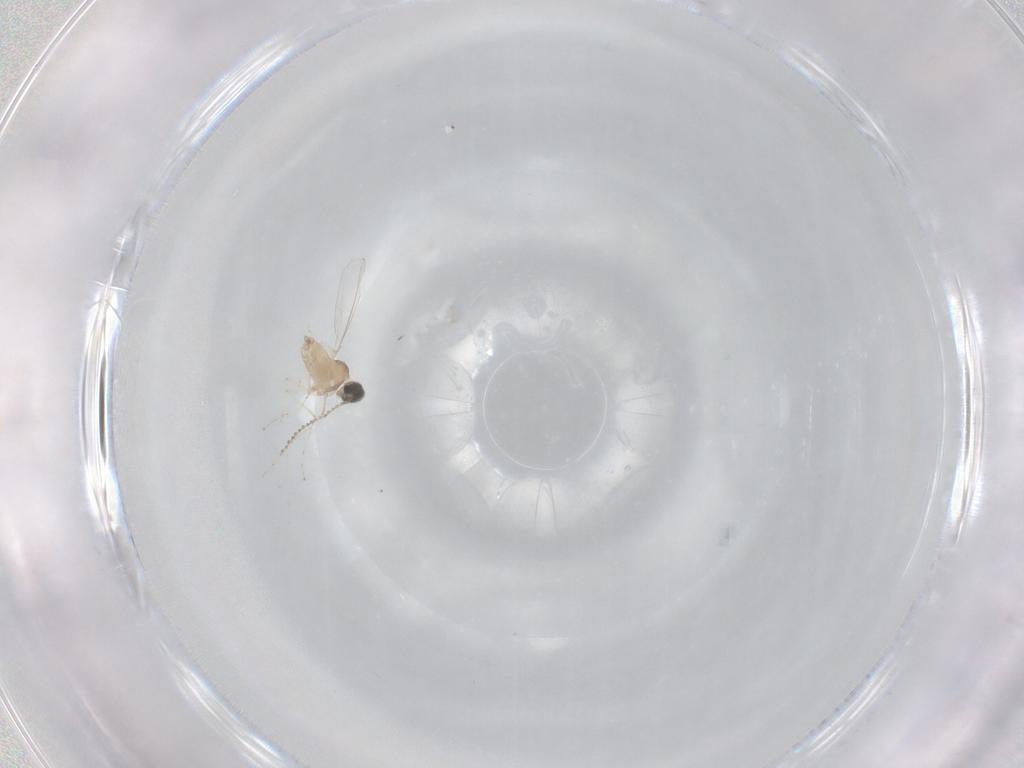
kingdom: Animalia
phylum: Arthropoda
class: Insecta
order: Diptera
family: Cecidomyiidae
